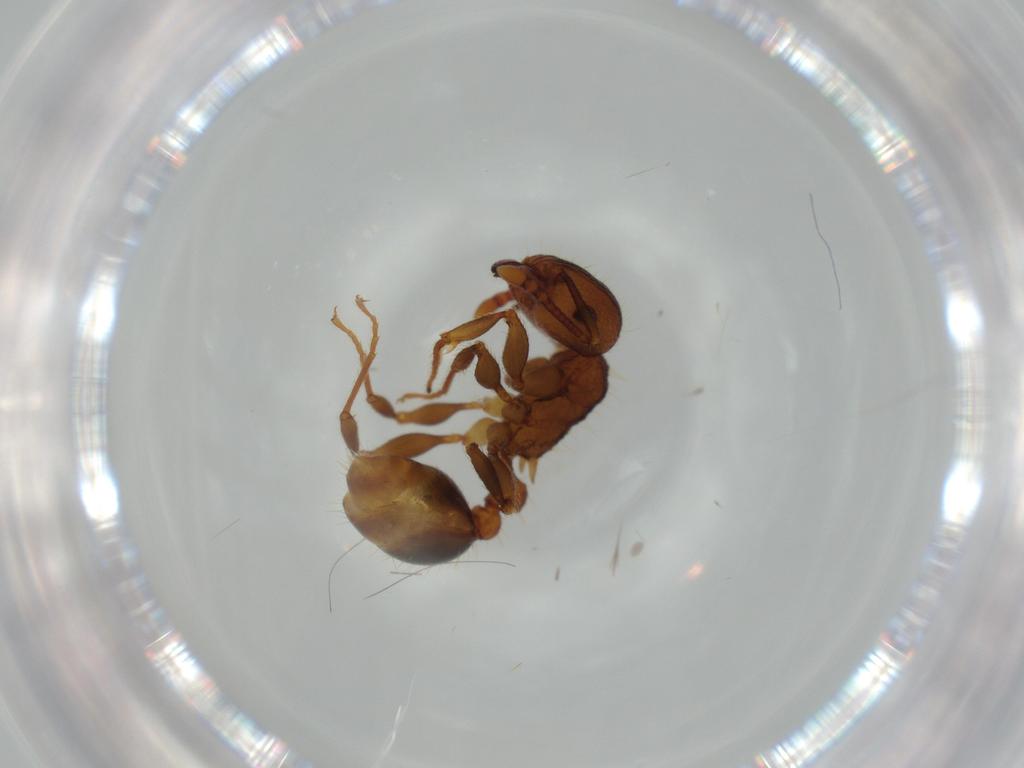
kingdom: Animalia
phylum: Arthropoda
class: Insecta
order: Hymenoptera
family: Formicidae
